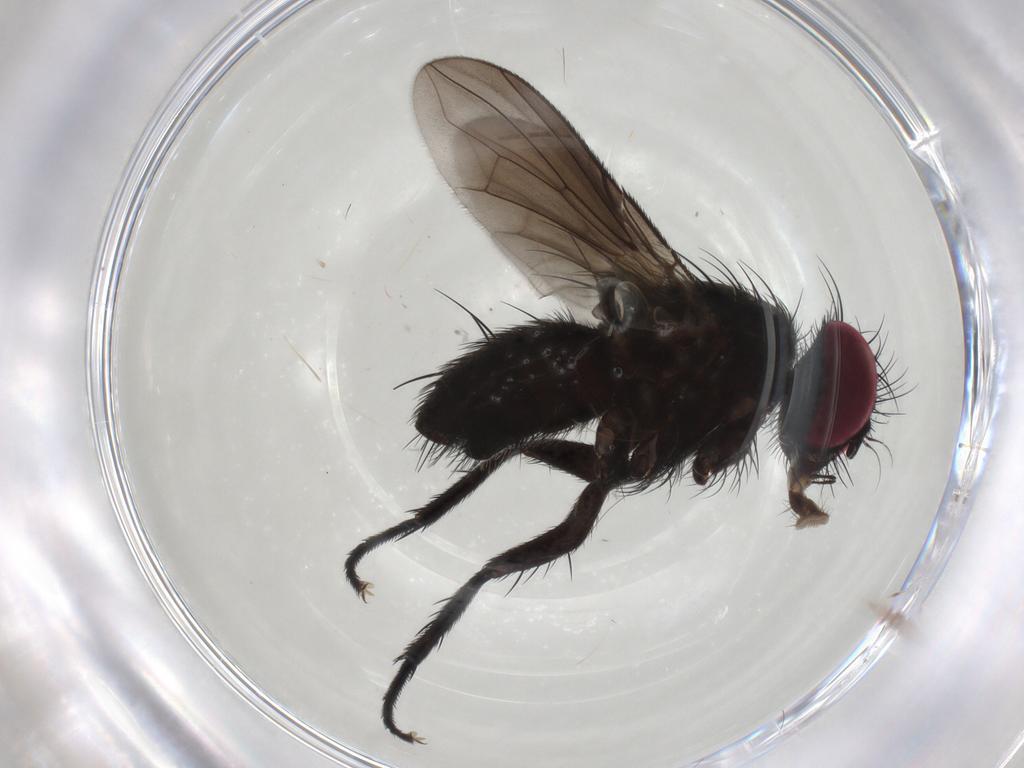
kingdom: Animalia
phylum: Arthropoda
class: Insecta
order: Diptera
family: Calliphoridae
